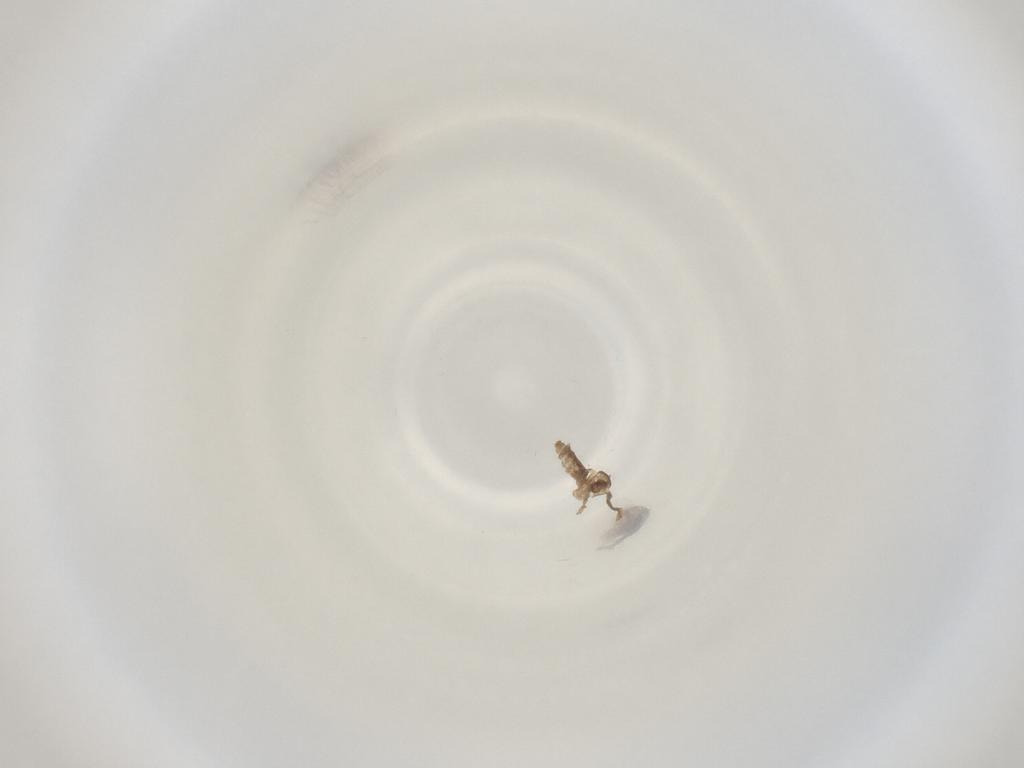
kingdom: Animalia
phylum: Arthropoda
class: Insecta
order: Diptera
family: Cecidomyiidae
